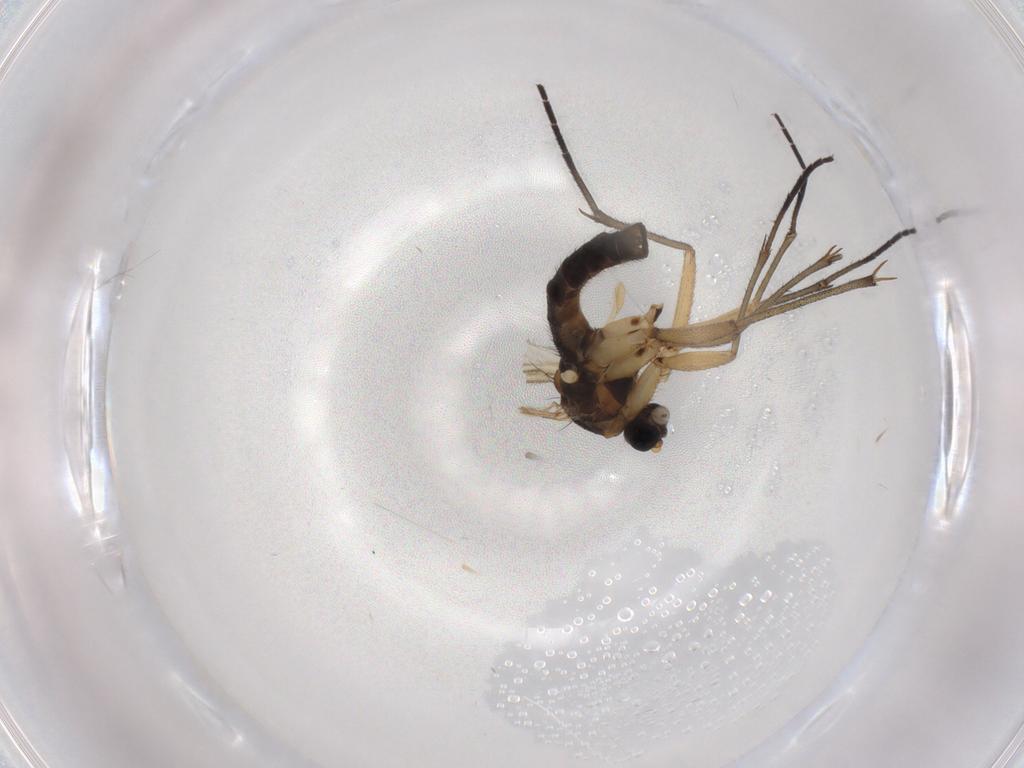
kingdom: Animalia
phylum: Arthropoda
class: Insecta
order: Diptera
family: Sciaridae
